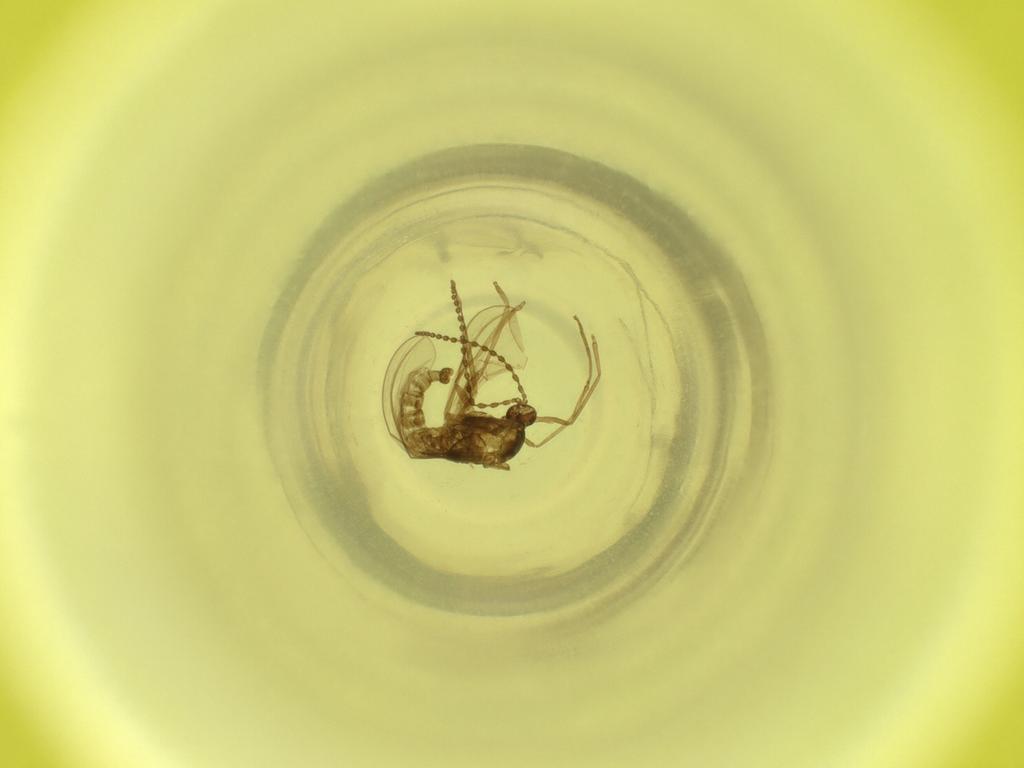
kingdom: Animalia
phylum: Arthropoda
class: Insecta
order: Diptera
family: Cecidomyiidae
